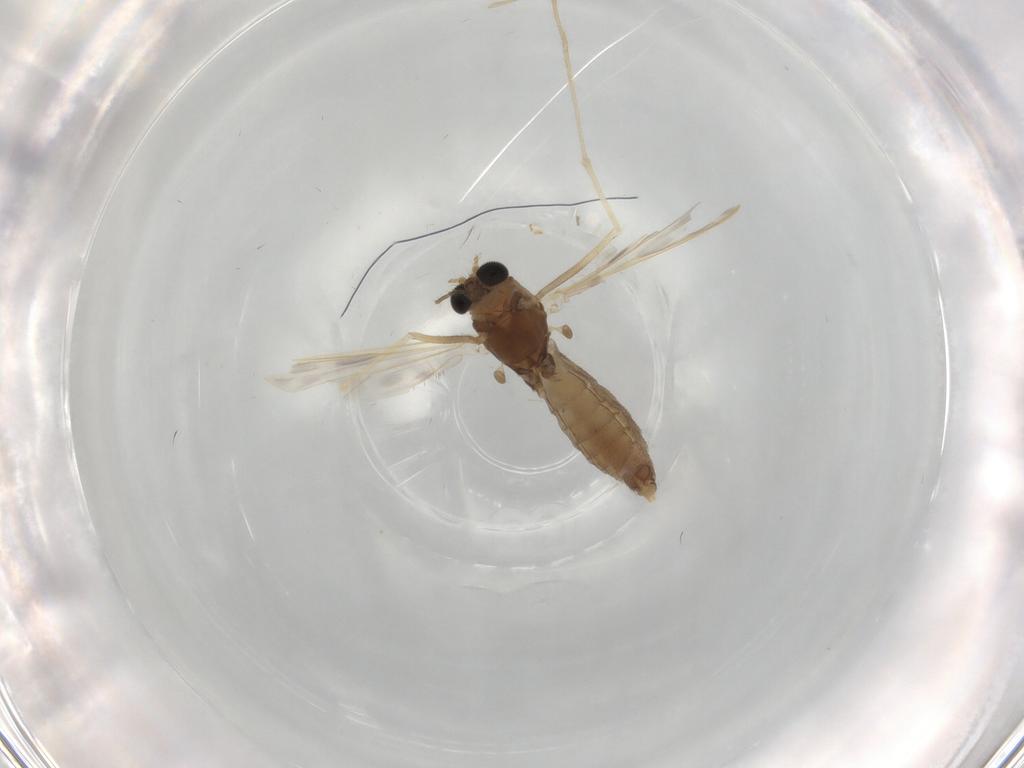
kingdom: Animalia
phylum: Arthropoda
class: Insecta
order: Diptera
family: Chironomidae
